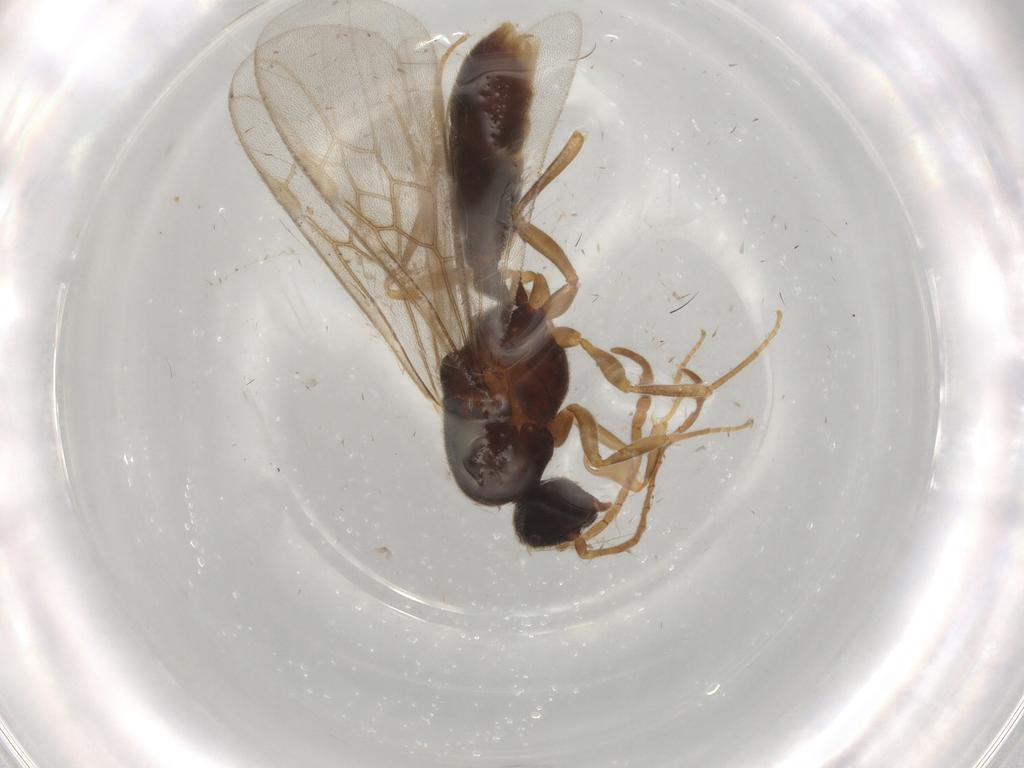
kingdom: Animalia
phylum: Arthropoda
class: Insecta
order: Hymenoptera
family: Formicidae
